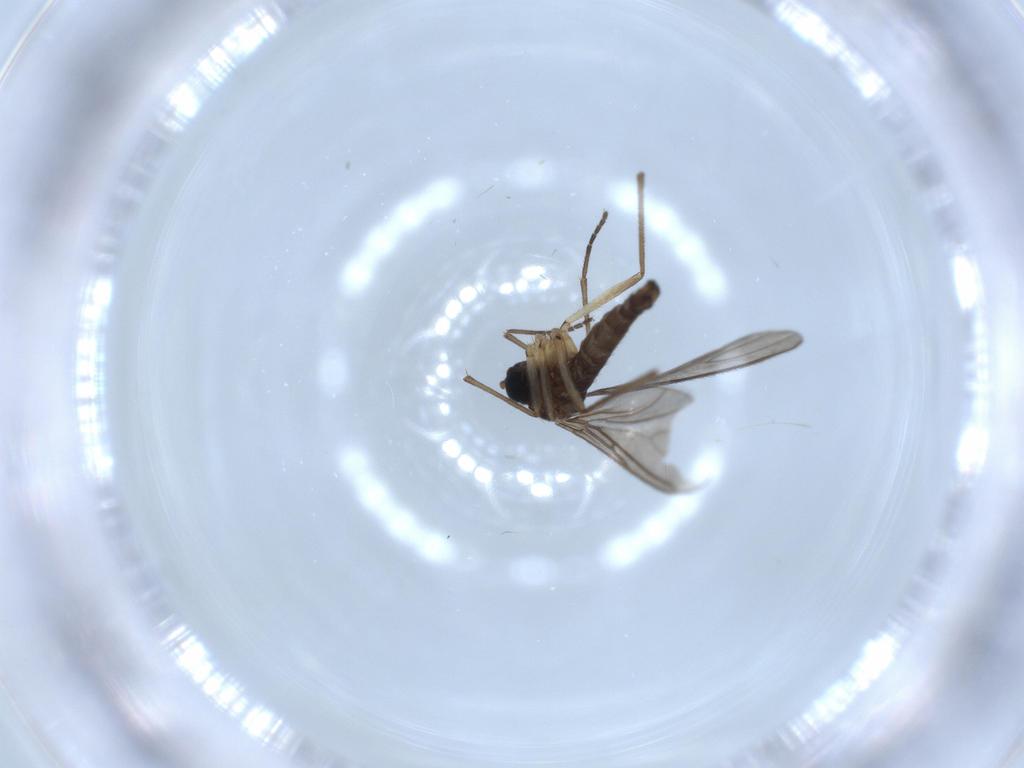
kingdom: Animalia
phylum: Arthropoda
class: Insecta
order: Diptera
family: Sciaridae
